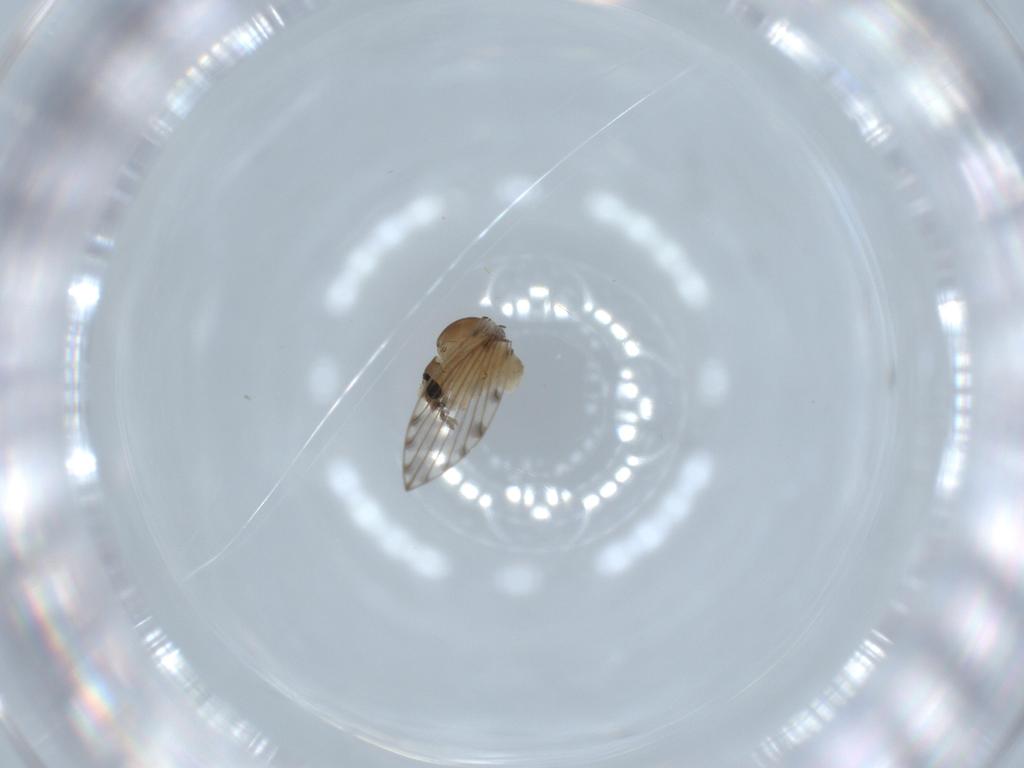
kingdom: Animalia
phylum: Arthropoda
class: Insecta
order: Diptera
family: Psychodidae
